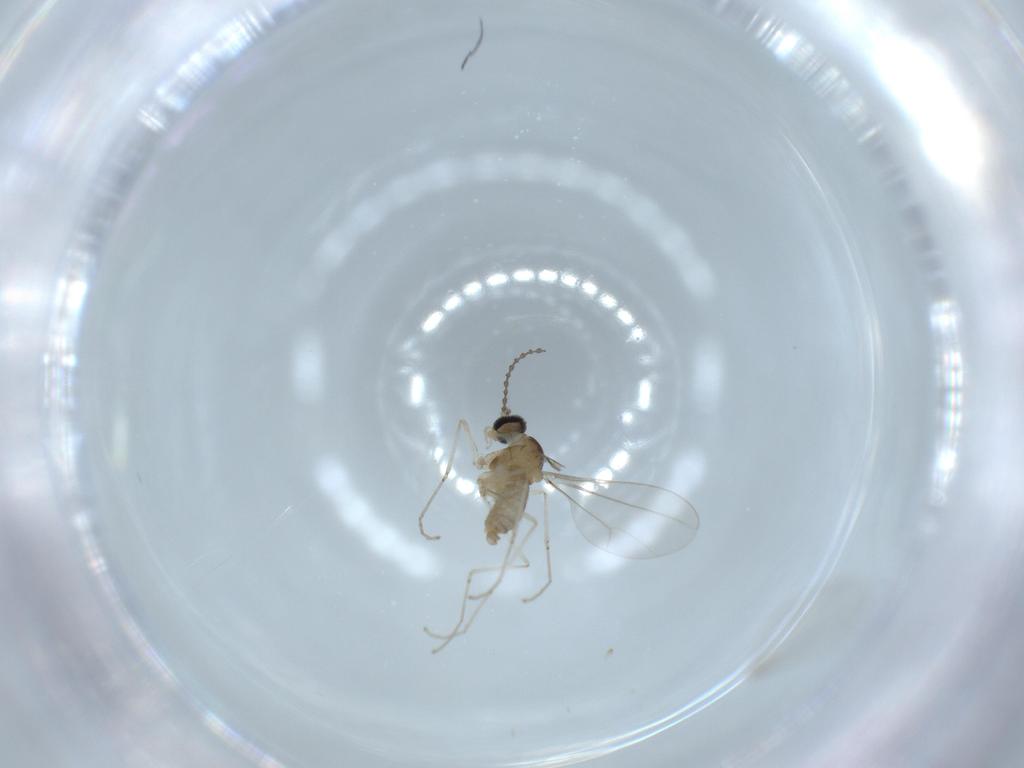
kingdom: Animalia
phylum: Arthropoda
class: Insecta
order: Diptera
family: Cecidomyiidae
